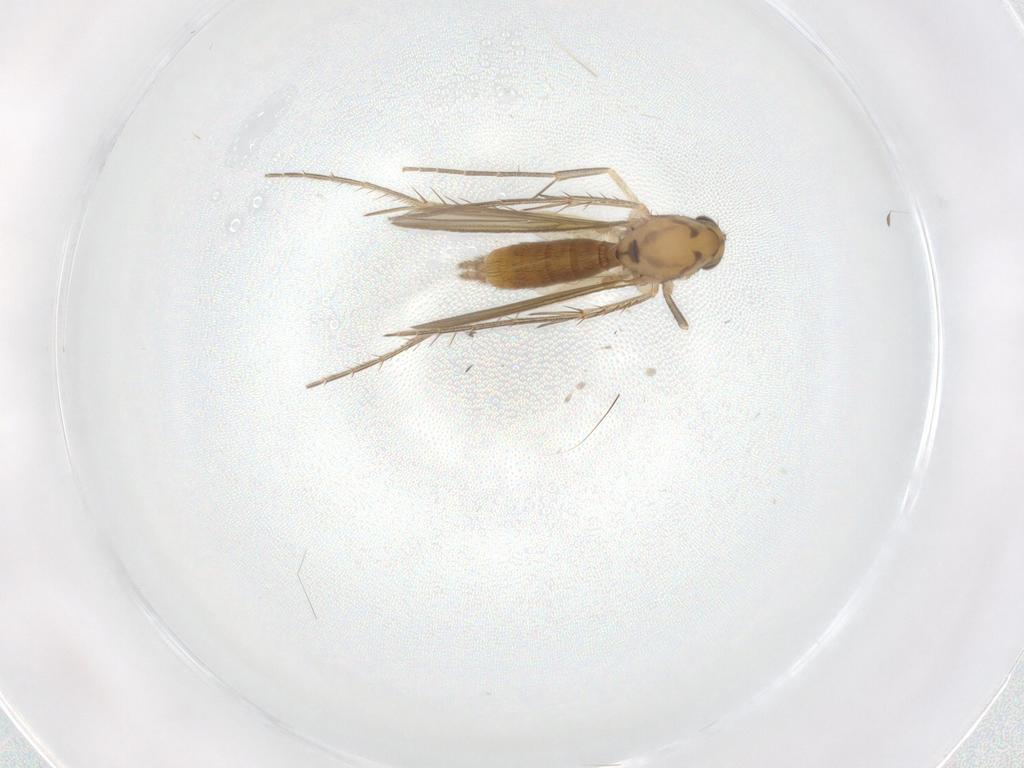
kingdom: Animalia
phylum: Arthropoda
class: Insecta
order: Diptera
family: Mycetophilidae
